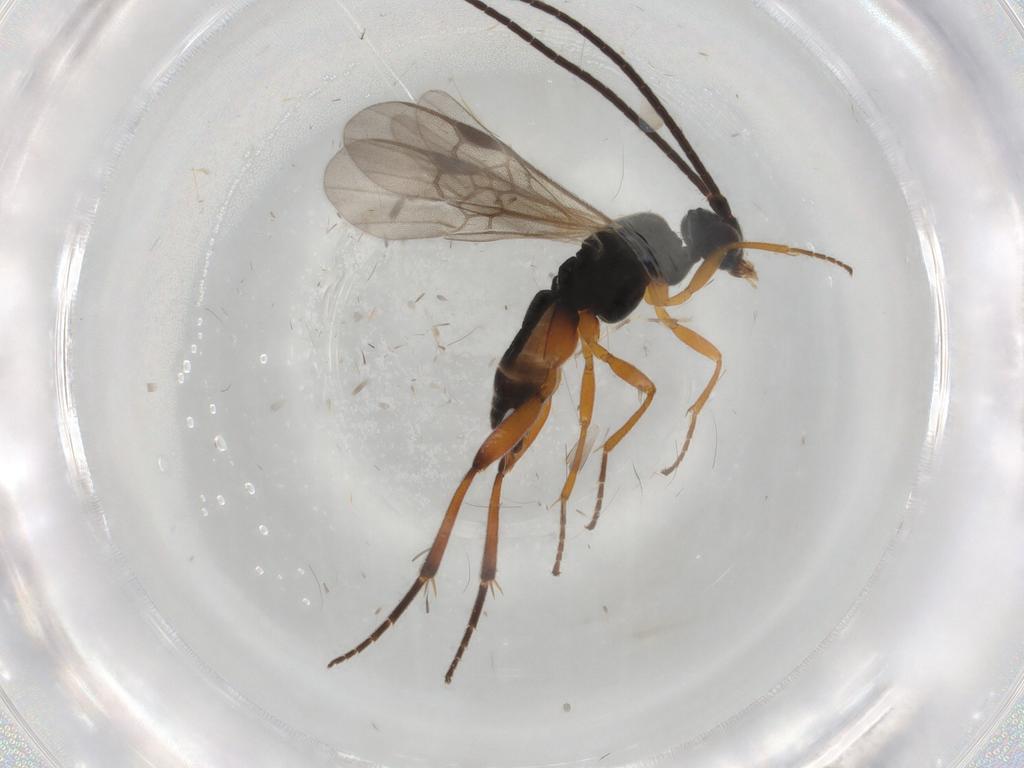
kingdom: Animalia
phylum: Arthropoda
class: Insecta
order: Hymenoptera
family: Braconidae
